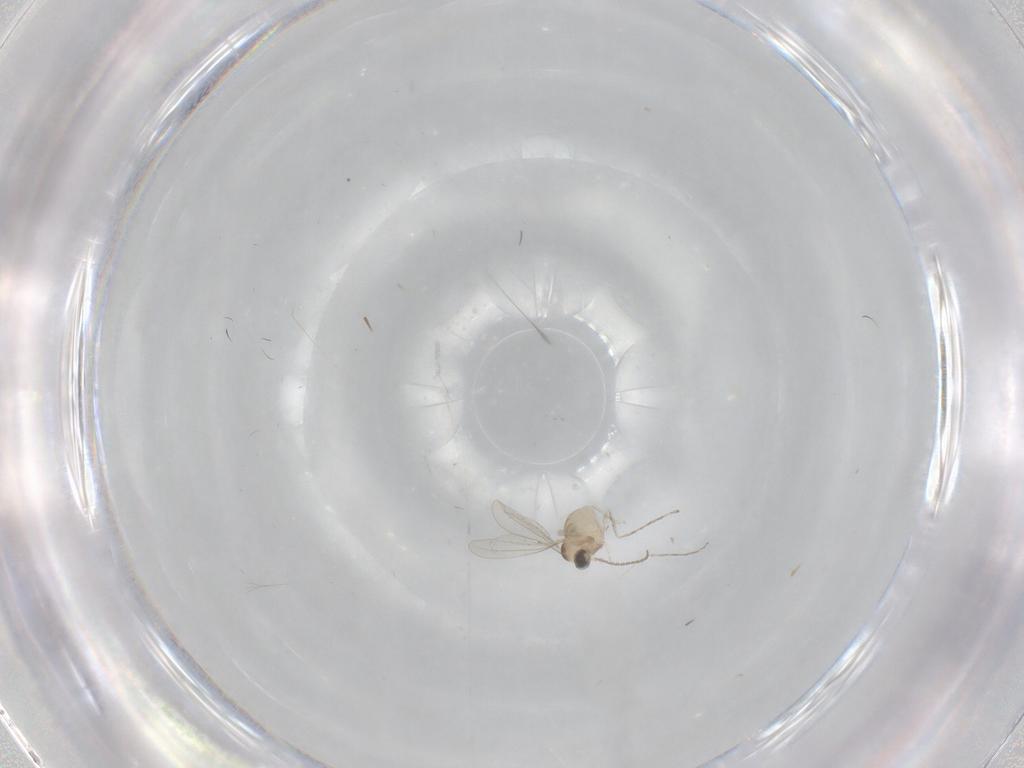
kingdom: Animalia
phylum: Arthropoda
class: Insecta
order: Diptera
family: Cecidomyiidae
